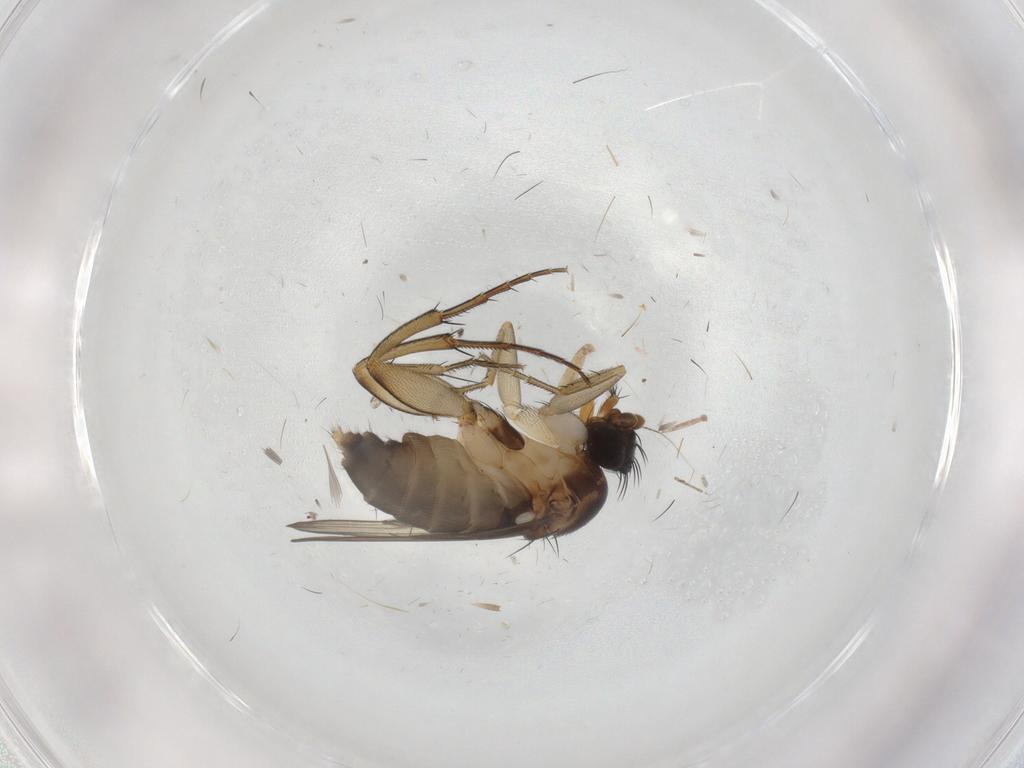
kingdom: Animalia
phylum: Arthropoda
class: Insecta
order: Diptera
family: Phoridae
